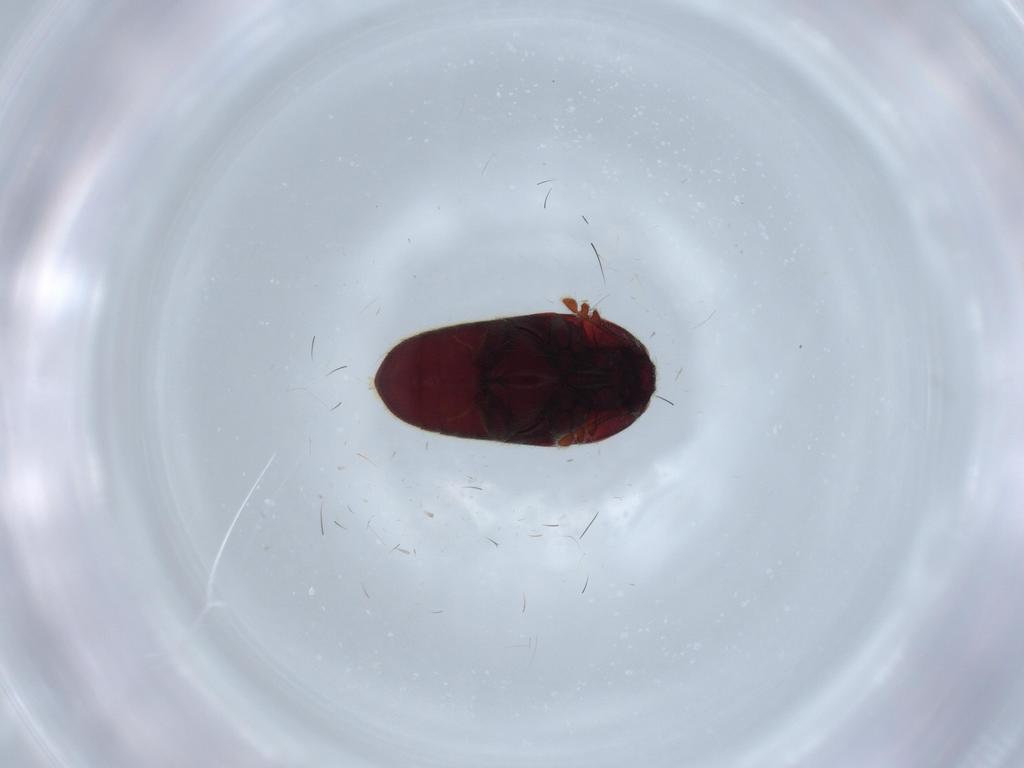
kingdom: Animalia
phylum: Arthropoda
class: Insecta
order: Coleoptera
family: Throscidae
